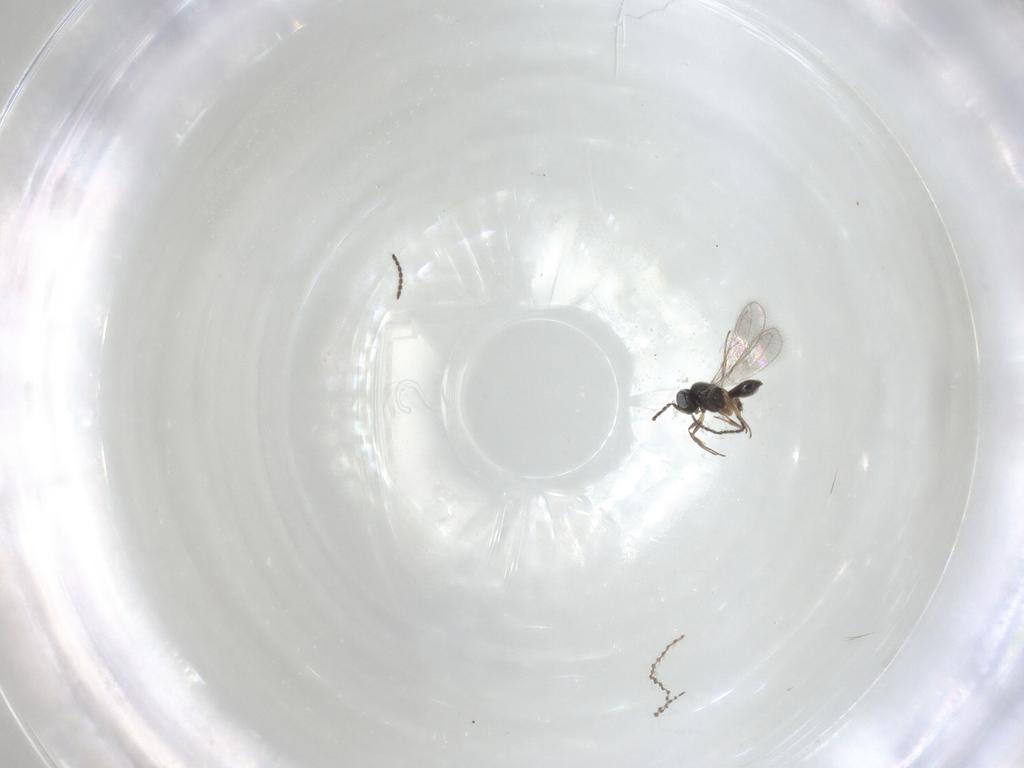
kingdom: Animalia
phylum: Arthropoda
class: Insecta
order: Hymenoptera
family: Scelionidae
